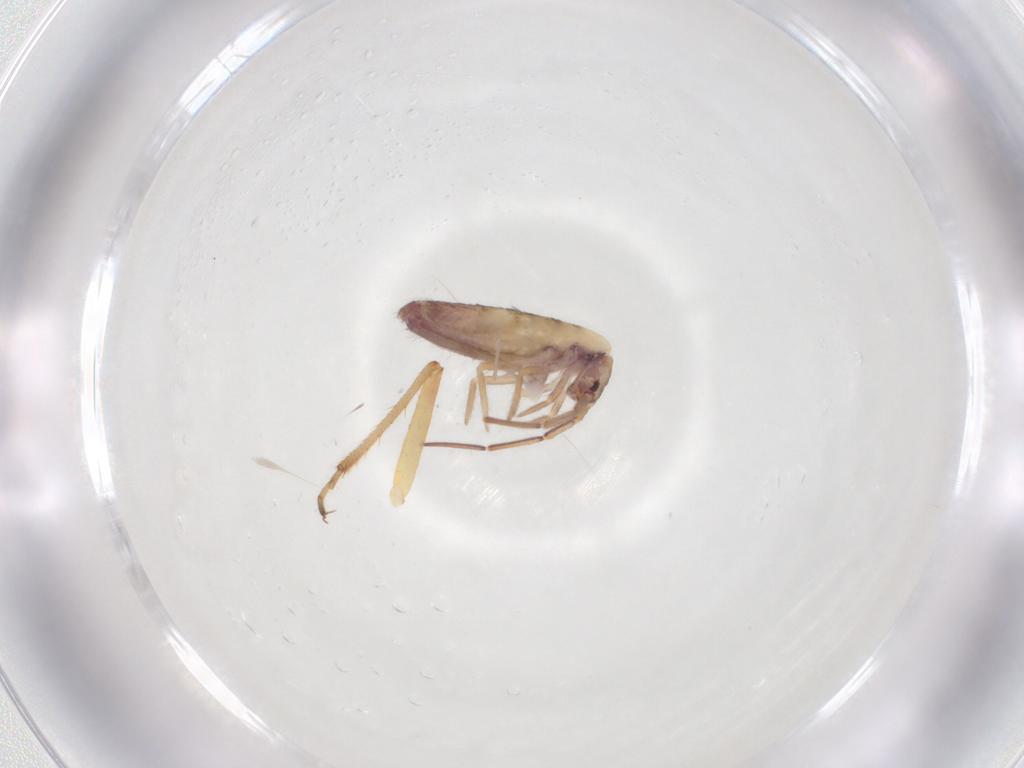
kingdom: Animalia
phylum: Arthropoda
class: Collembola
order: Entomobryomorpha
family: Entomobryidae
